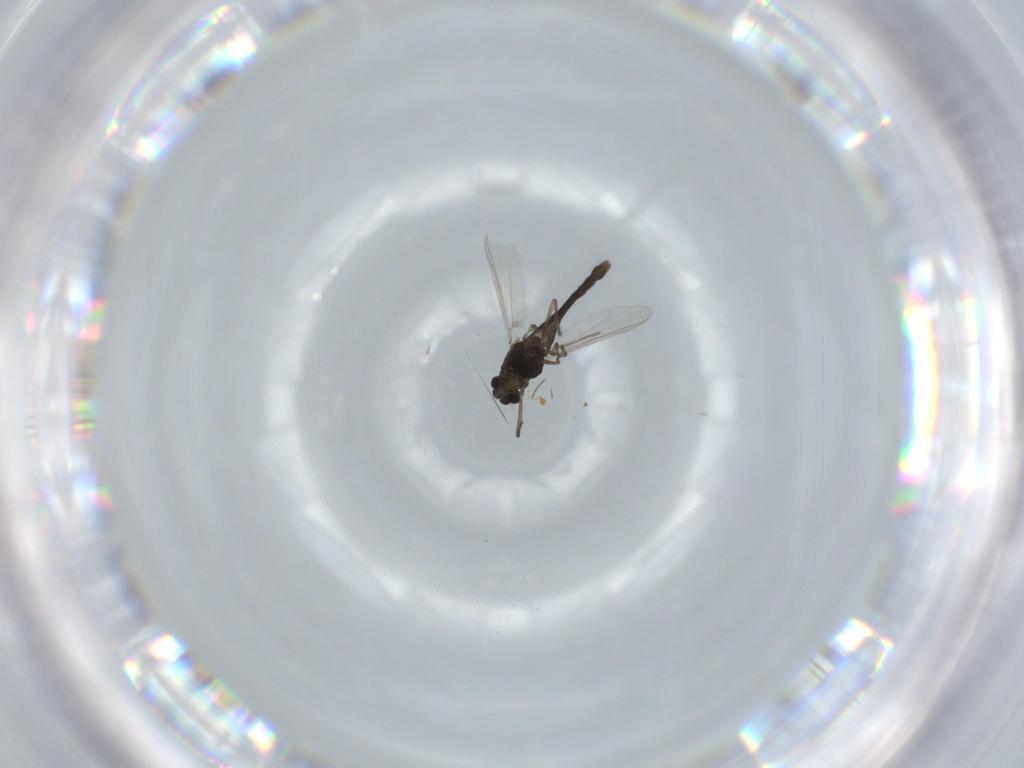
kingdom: Animalia
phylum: Arthropoda
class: Insecta
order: Diptera
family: Chironomidae
